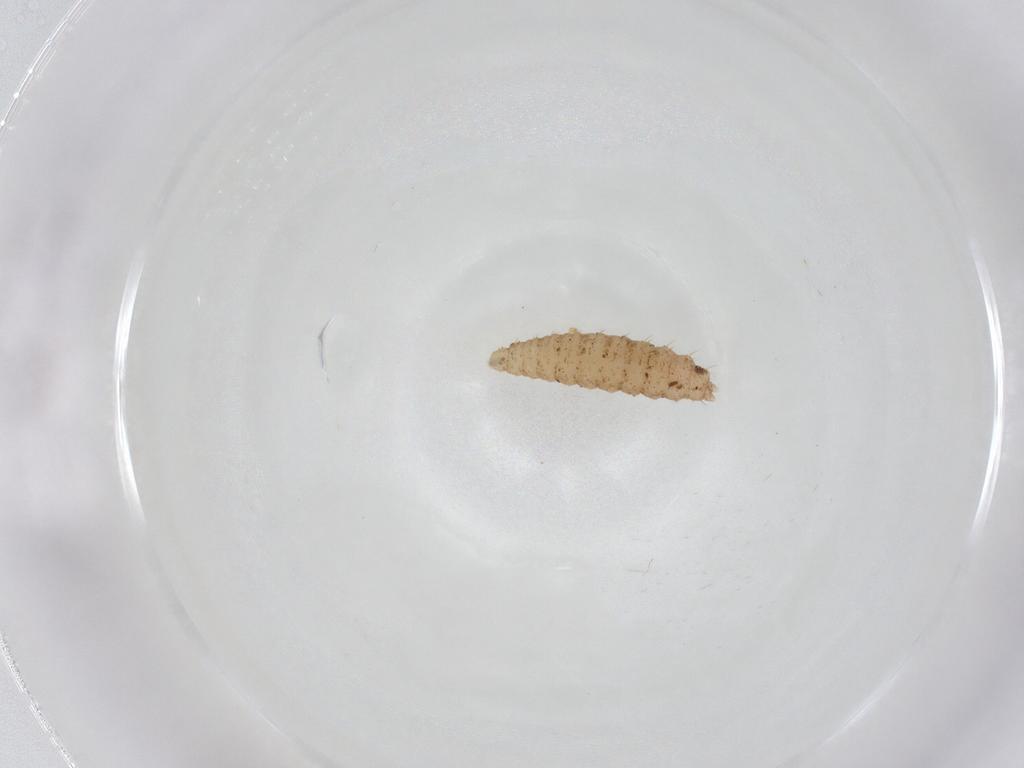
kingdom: Animalia
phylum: Arthropoda
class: Insecta
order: Diptera
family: Cecidomyiidae
